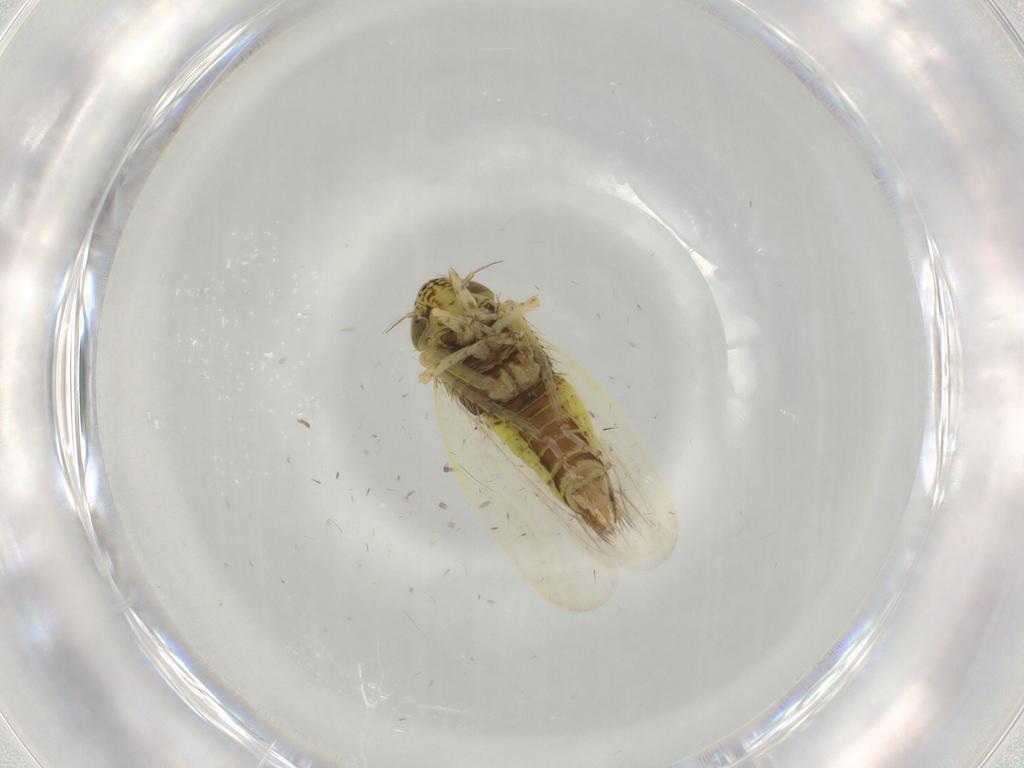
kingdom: Animalia
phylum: Arthropoda
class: Insecta
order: Hemiptera
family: Cicadellidae
